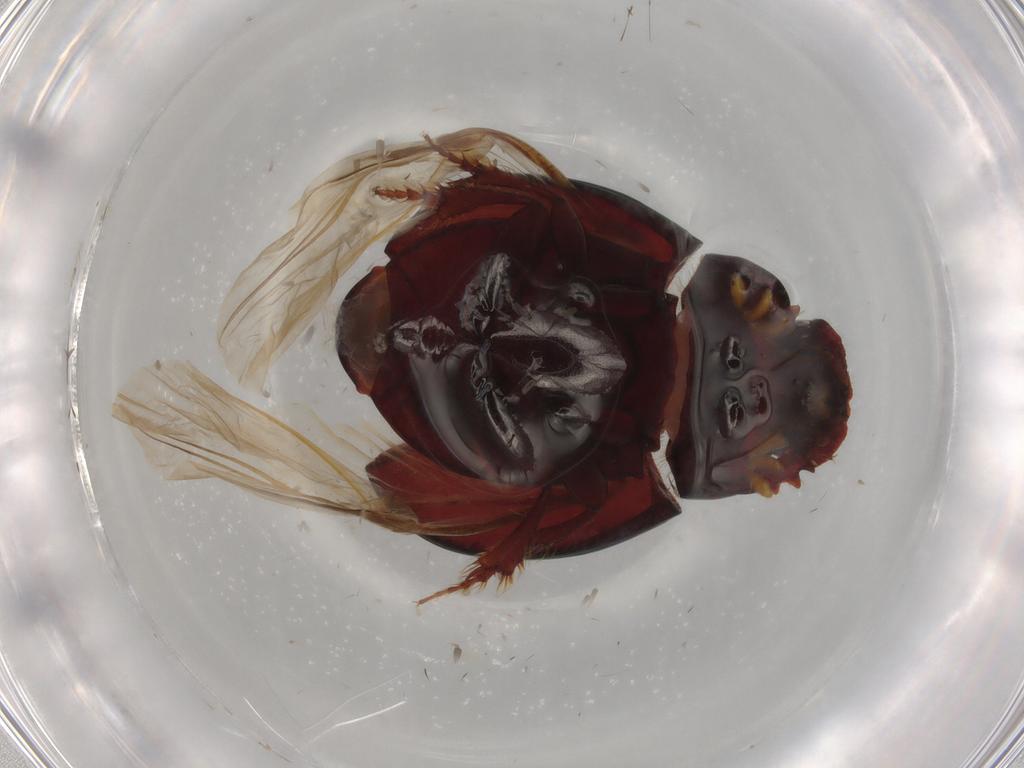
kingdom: Animalia
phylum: Arthropoda
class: Insecta
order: Coleoptera
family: Scarabaeidae
